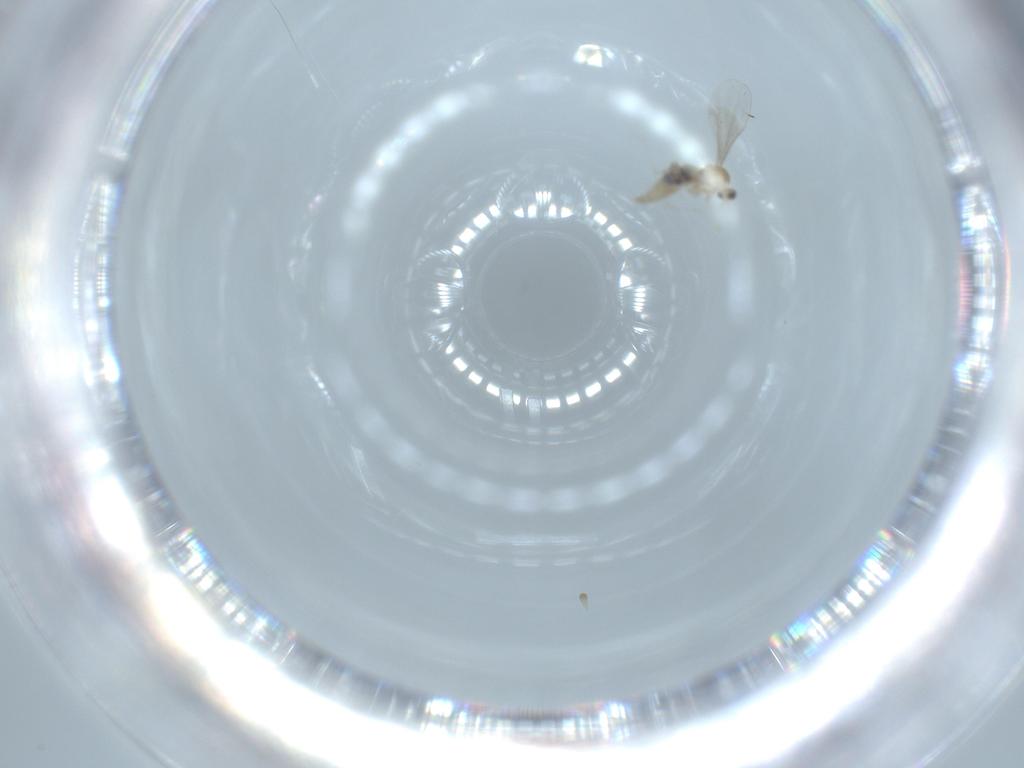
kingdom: Animalia
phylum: Arthropoda
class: Insecta
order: Diptera
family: Cecidomyiidae
